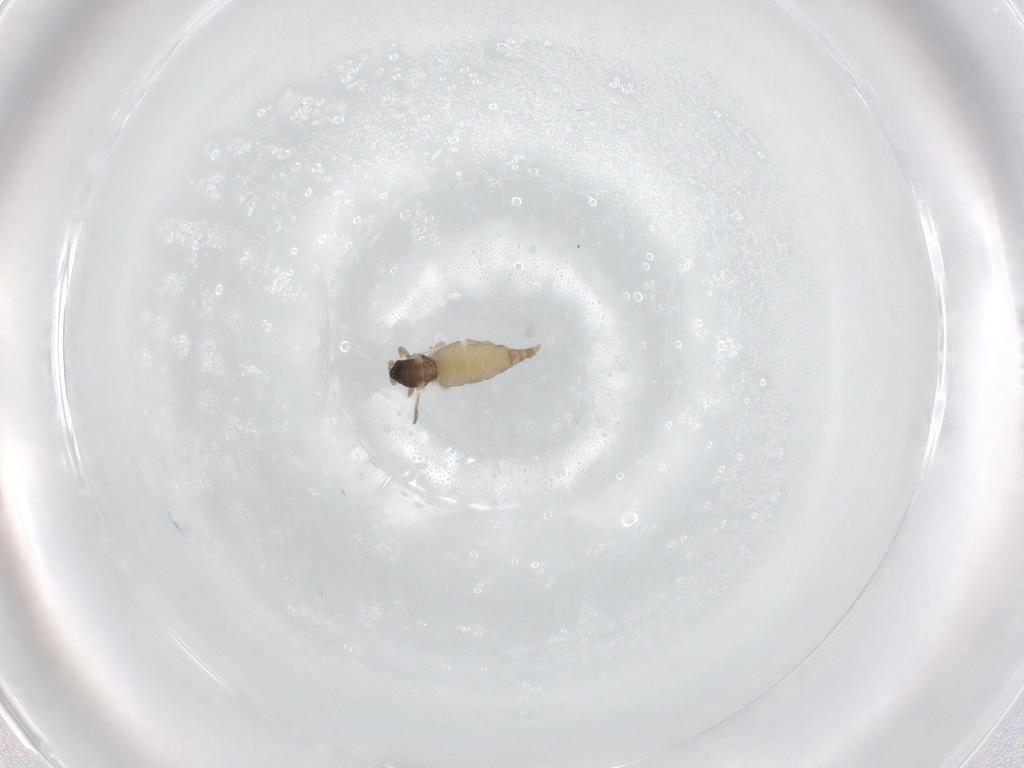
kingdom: Animalia
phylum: Arthropoda
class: Insecta
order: Diptera
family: Cecidomyiidae
